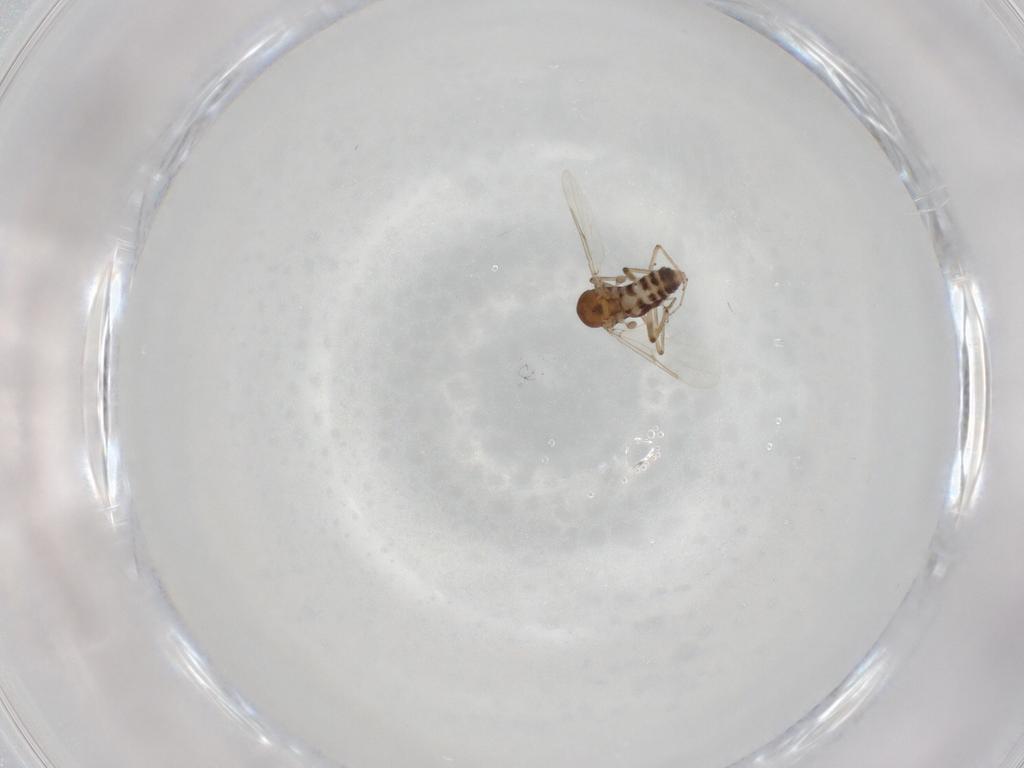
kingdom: Animalia
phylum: Arthropoda
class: Insecta
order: Diptera
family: Phoridae
